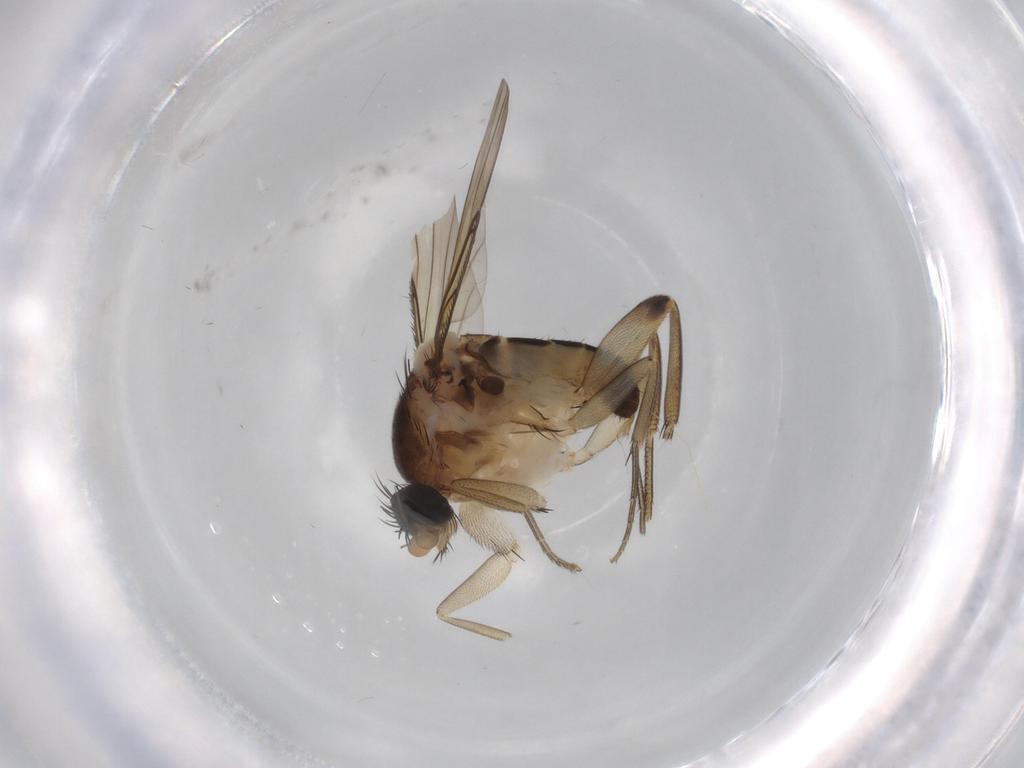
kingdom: Animalia
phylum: Arthropoda
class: Insecta
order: Diptera
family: Phoridae
